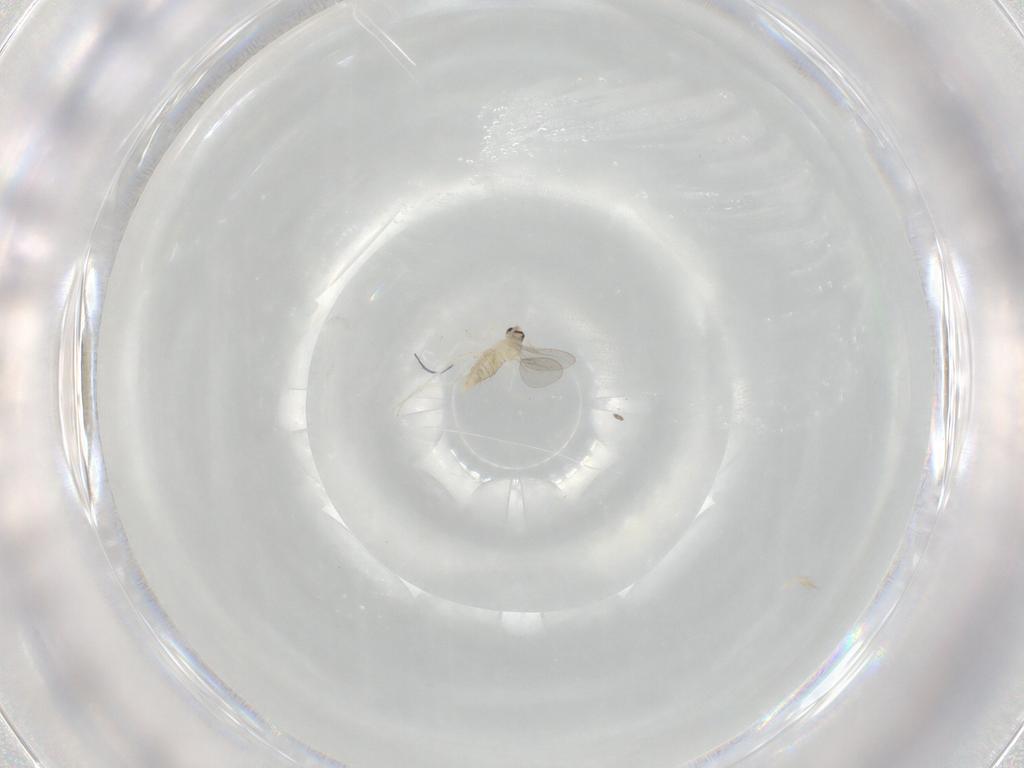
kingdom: Animalia
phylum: Arthropoda
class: Insecta
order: Diptera
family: Cecidomyiidae
